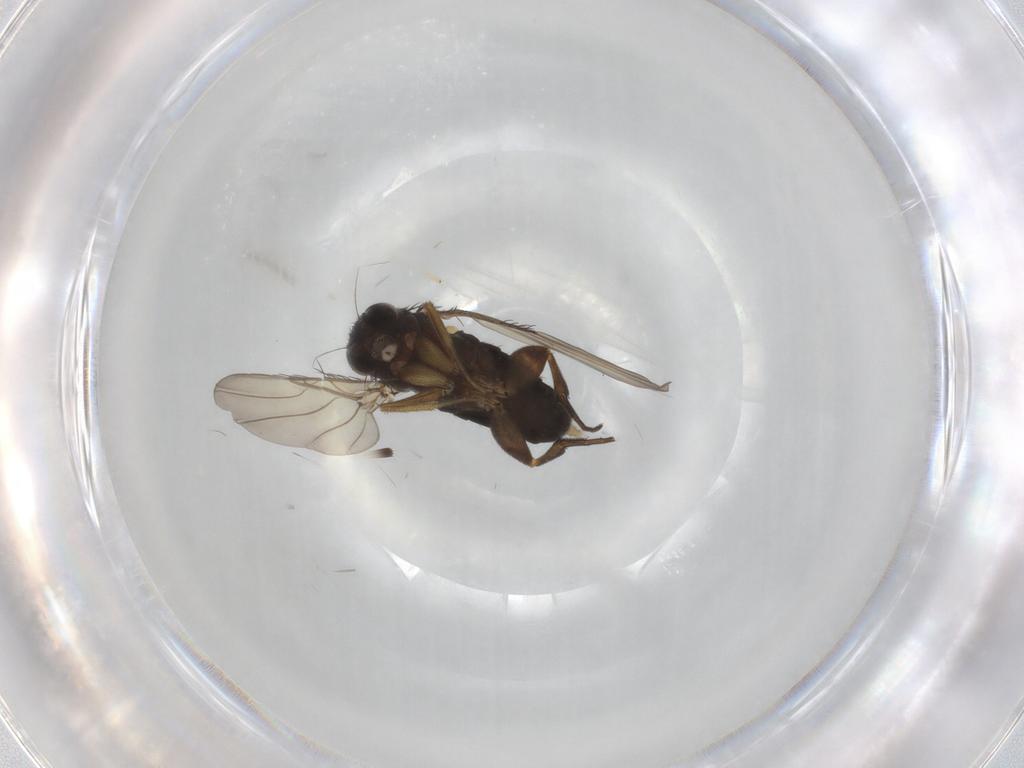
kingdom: Animalia
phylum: Arthropoda
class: Insecta
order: Diptera
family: Phoridae
